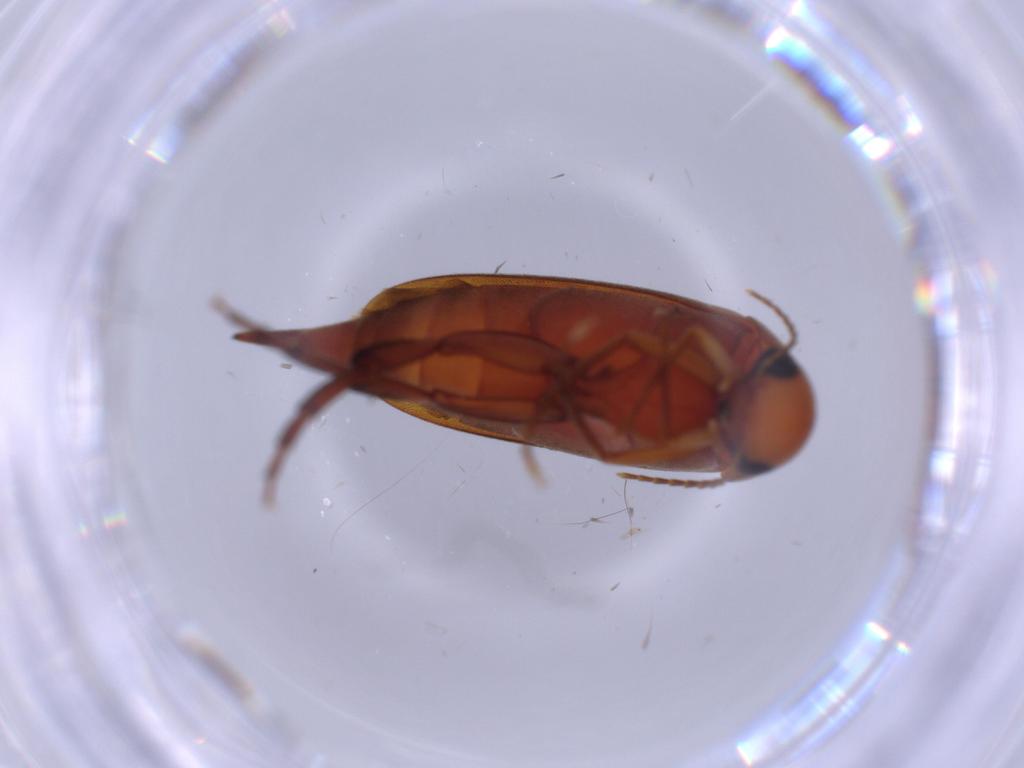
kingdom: Animalia
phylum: Arthropoda
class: Insecta
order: Coleoptera
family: Mordellidae
